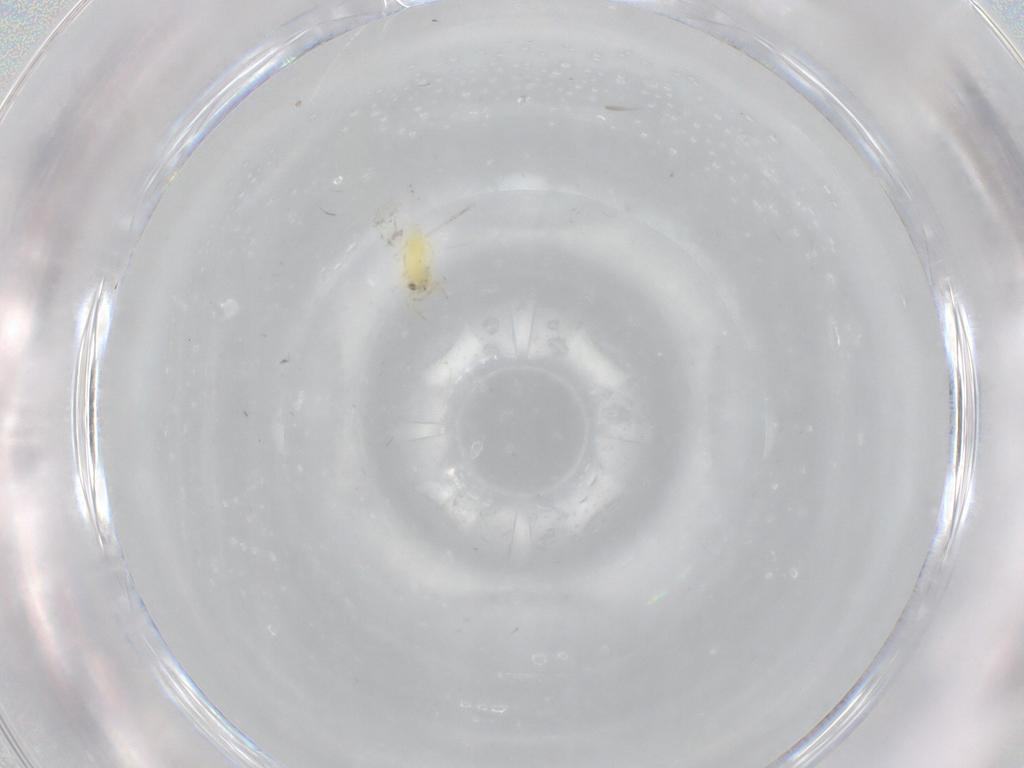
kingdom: Animalia
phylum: Arthropoda
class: Insecta
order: Hemiptera
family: Aleyrodidae
